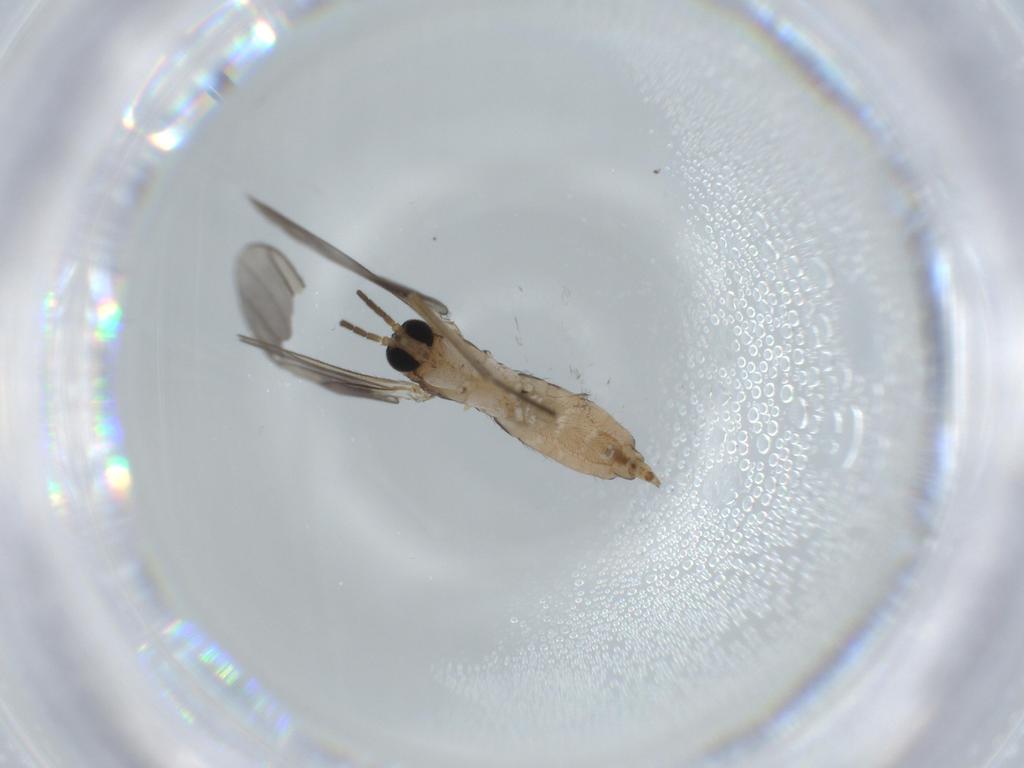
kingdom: Animalia
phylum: Arthropoda
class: Insecta
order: Diptera
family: Sciaridae
